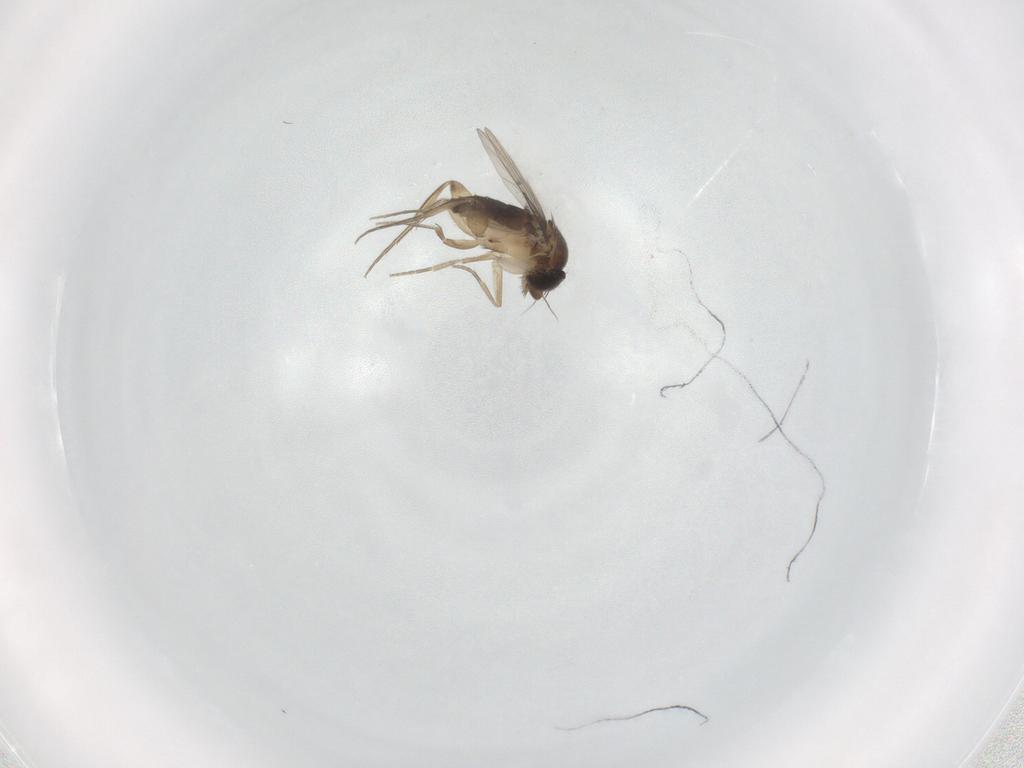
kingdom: Animalia
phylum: Arthropoda
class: Insecta
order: Diptera
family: Phoridae
